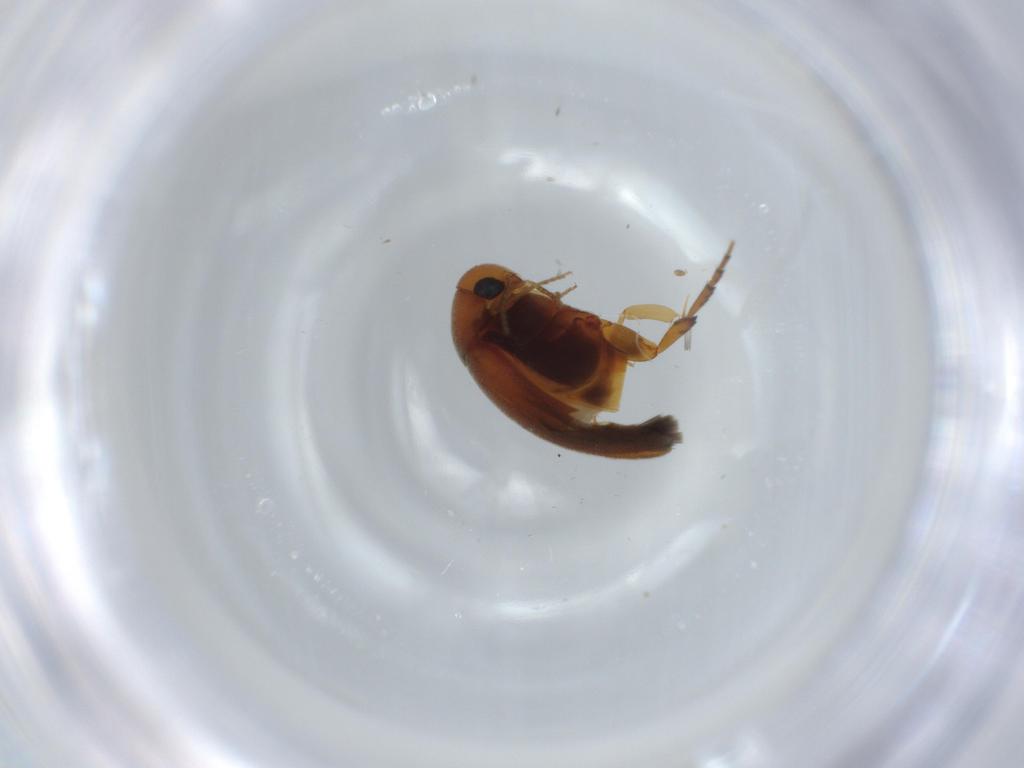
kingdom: Animalia
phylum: Arthropoda
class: Insecta
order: Coleoptera
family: Mordellidae
